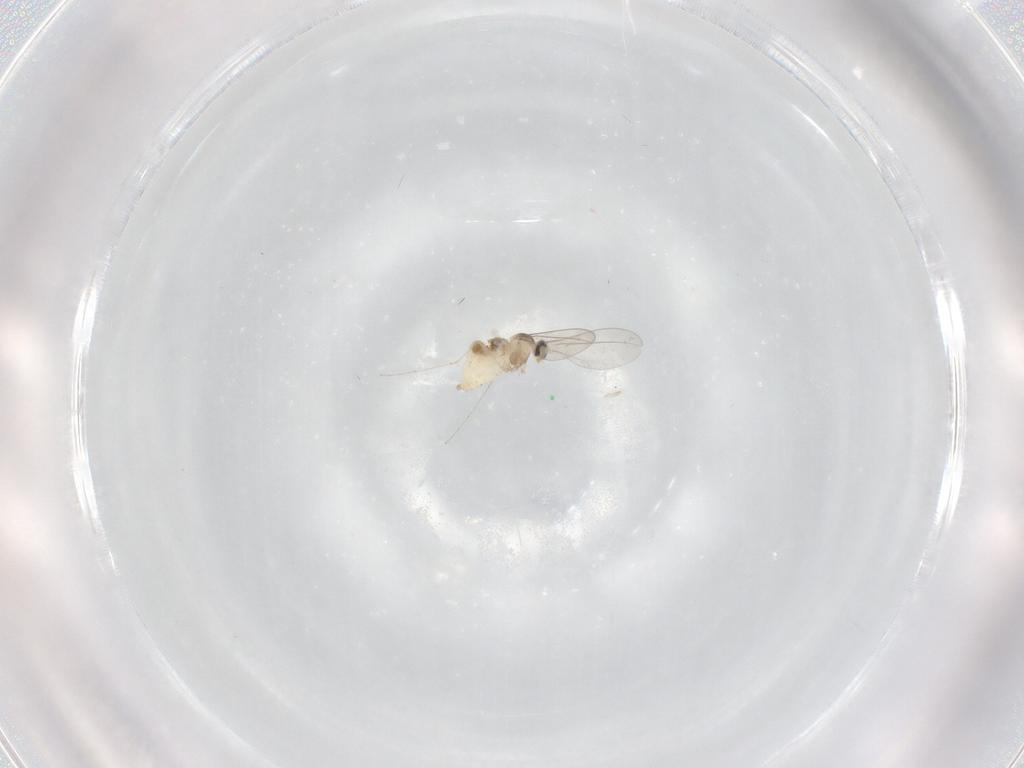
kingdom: Animalia
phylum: Arthropoda
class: Insecta
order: Diptera
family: Cecidomyiidae
